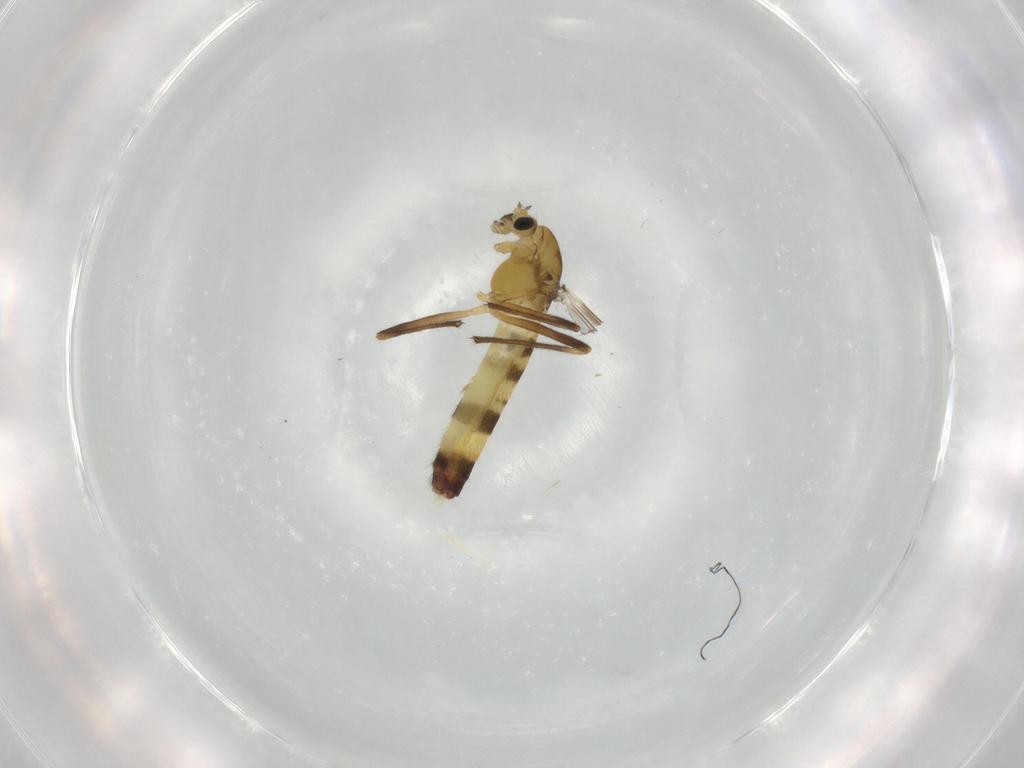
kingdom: Animalia
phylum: Arthropoda
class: Insecta
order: Diptera
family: Chironomidae
